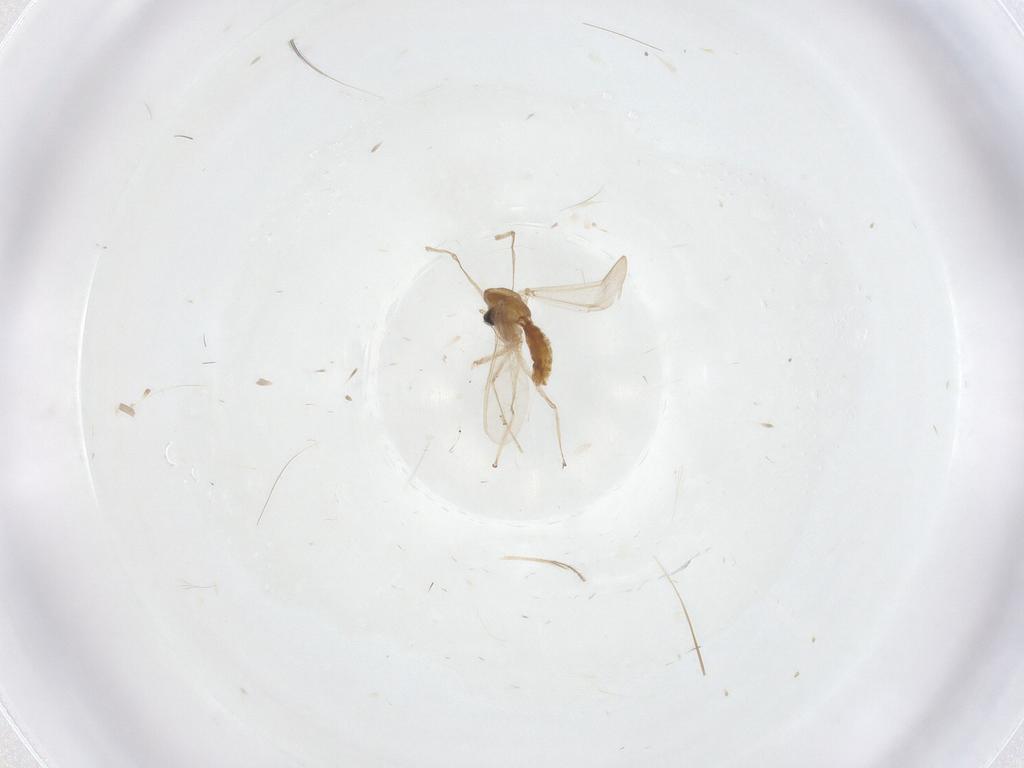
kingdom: Animalia
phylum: Arthropoda
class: Insecta
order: Diptera
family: Chironomidae
